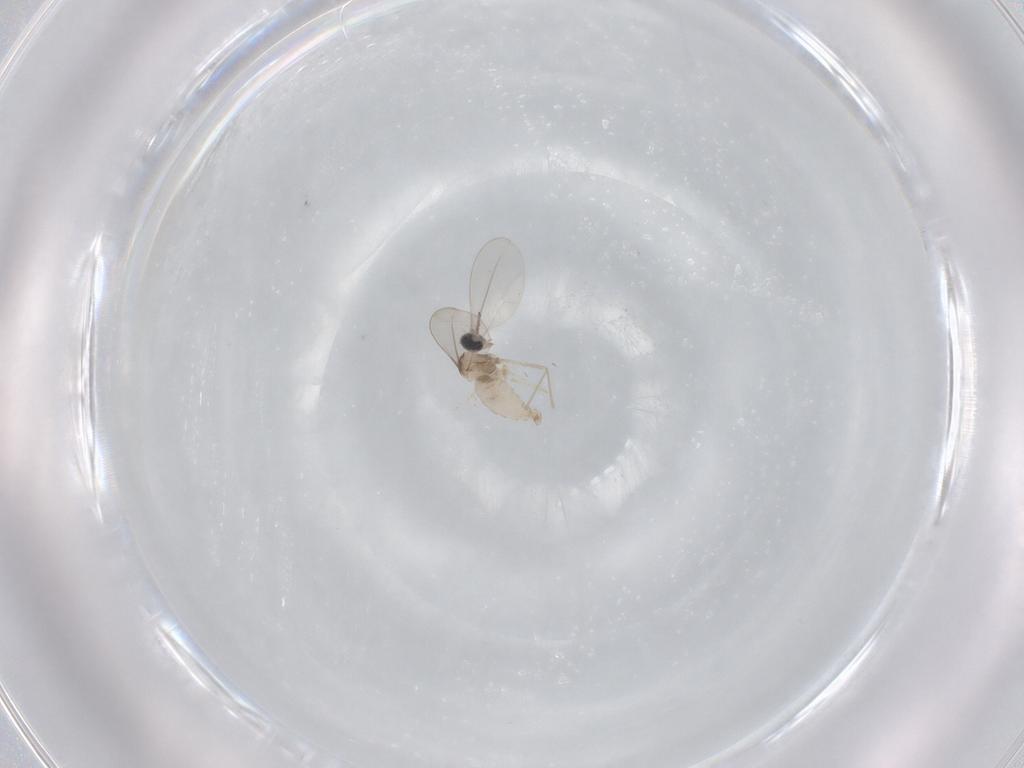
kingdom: Animalia
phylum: Arthropoda
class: Insecta
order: Diptera
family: Cecidomyiidae
